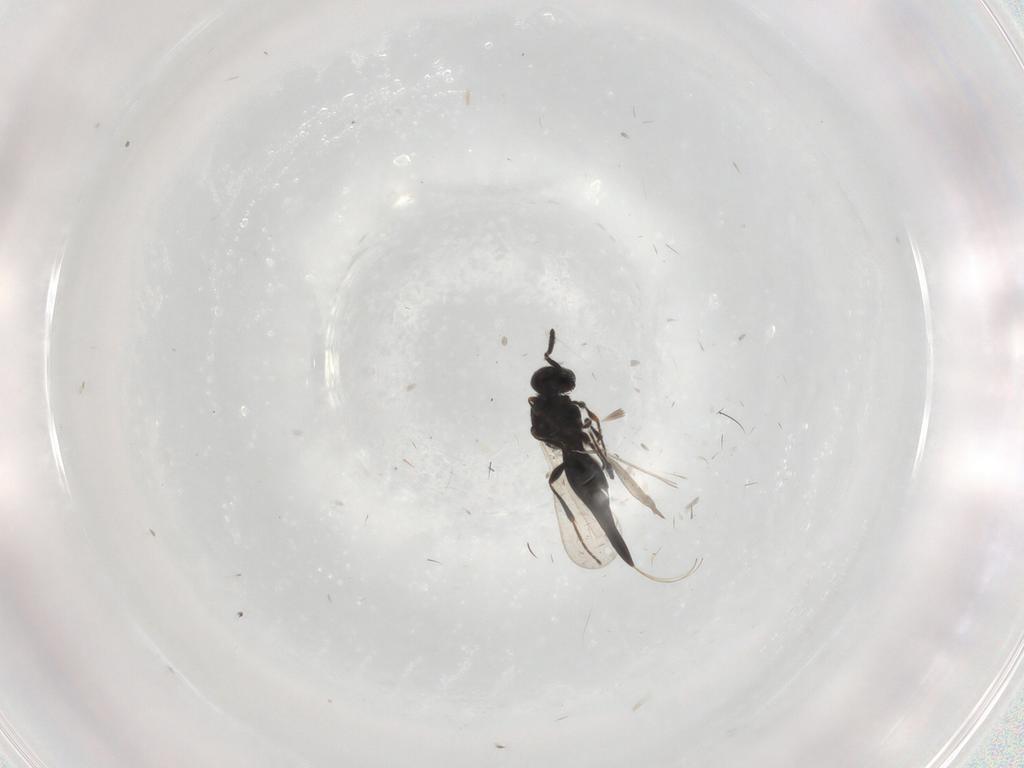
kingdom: Animalia
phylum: Arthropoda
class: Insecta
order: Hymenoptera
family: Platygastridae
